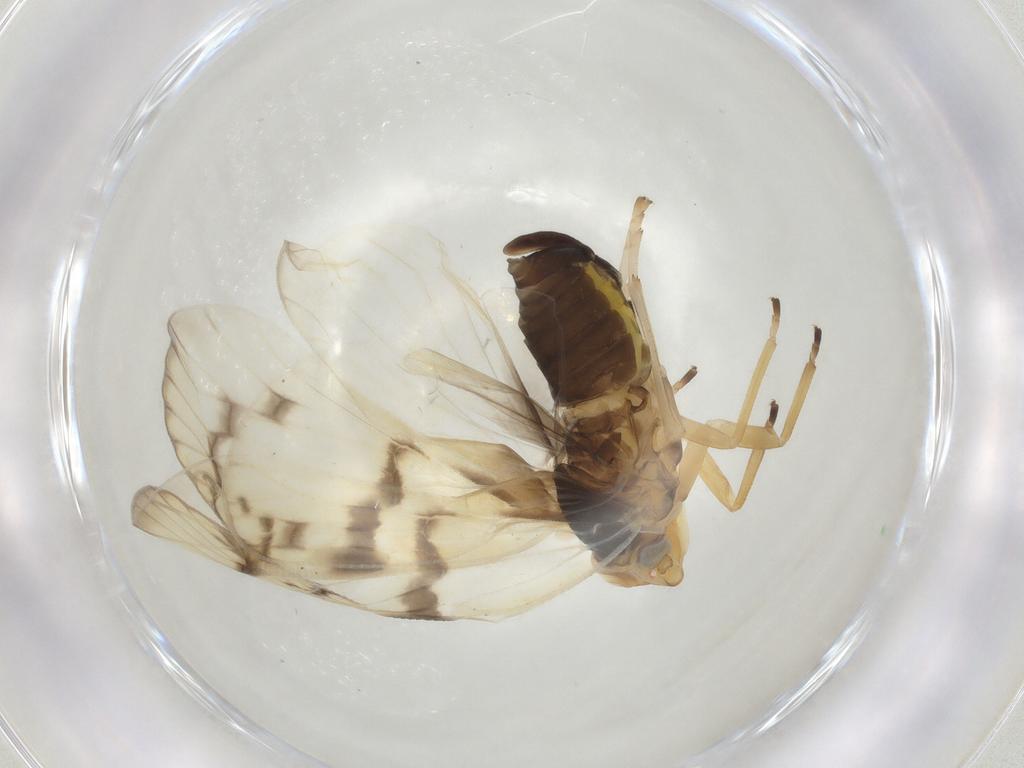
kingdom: Animalia
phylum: Arthropoda
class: Insecta
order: Hemiptera
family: Cixiidae
